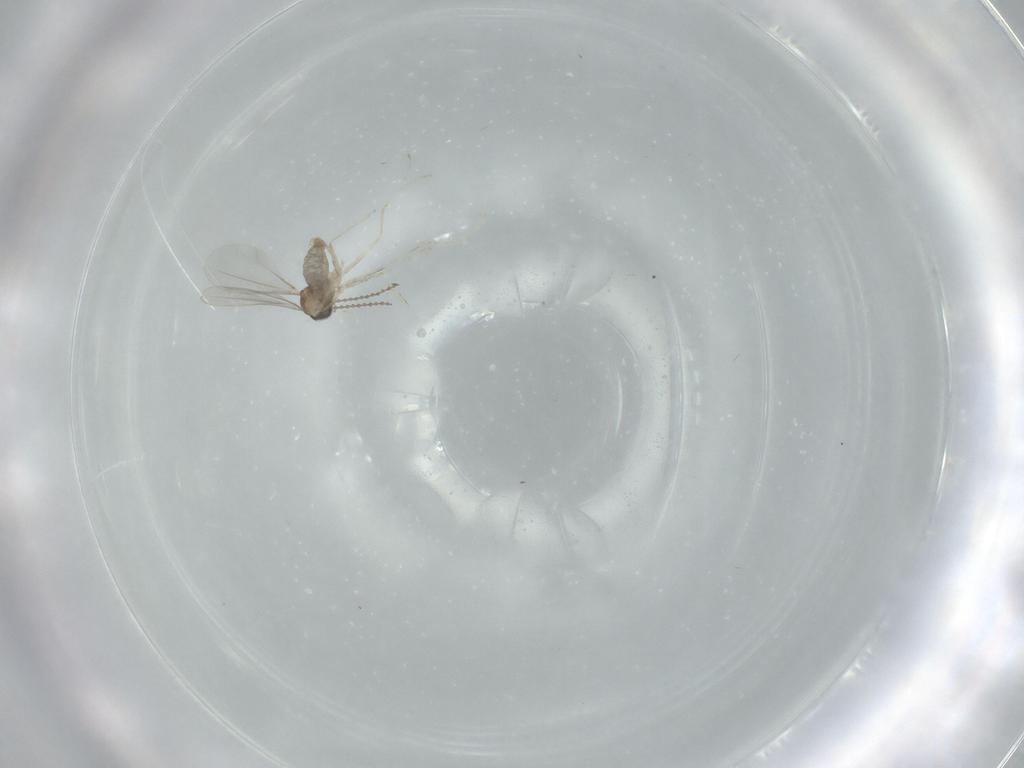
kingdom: Animalia
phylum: Arthropoda
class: Insecta
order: Diptera
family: Cecidomyiidae
